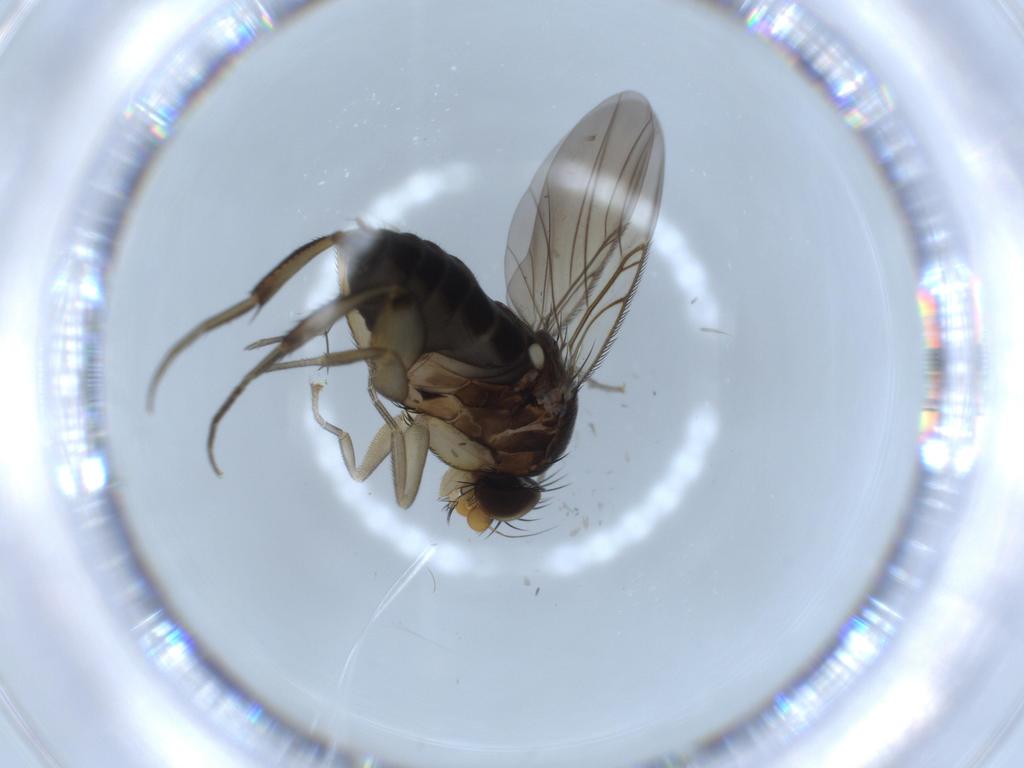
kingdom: Animalia
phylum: Arthropoda
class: Insecta
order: Diptera
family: Phoridae
